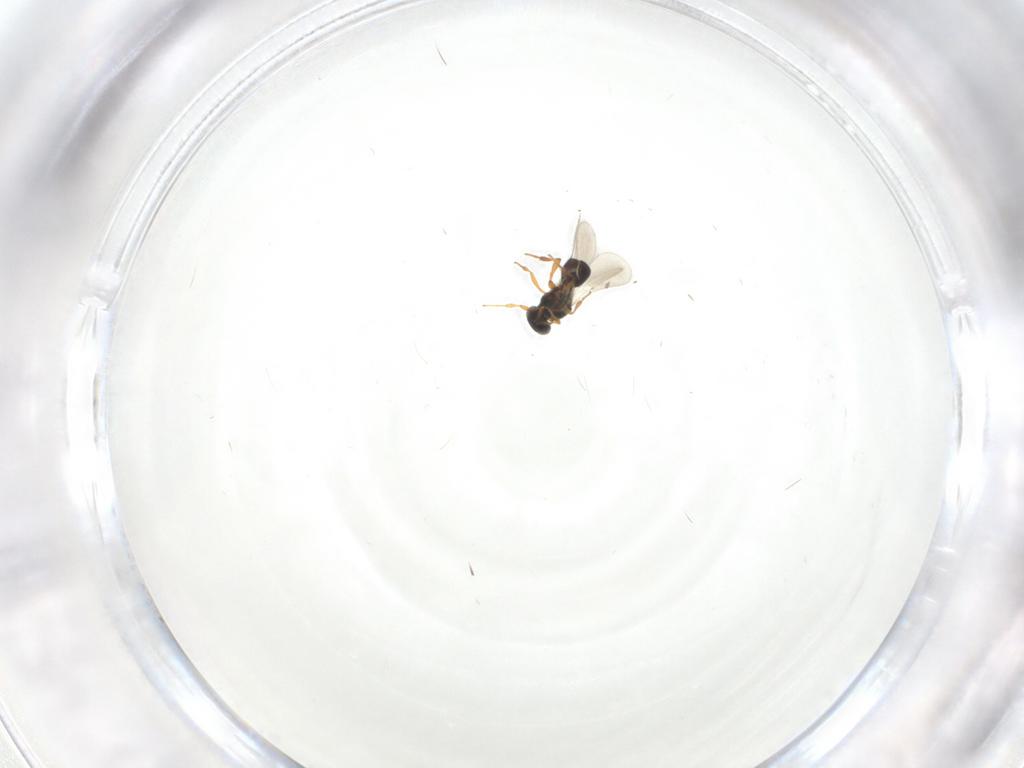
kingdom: Animalia
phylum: Arthropoda
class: Insecta
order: Hymenoptera
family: Platygastridae
